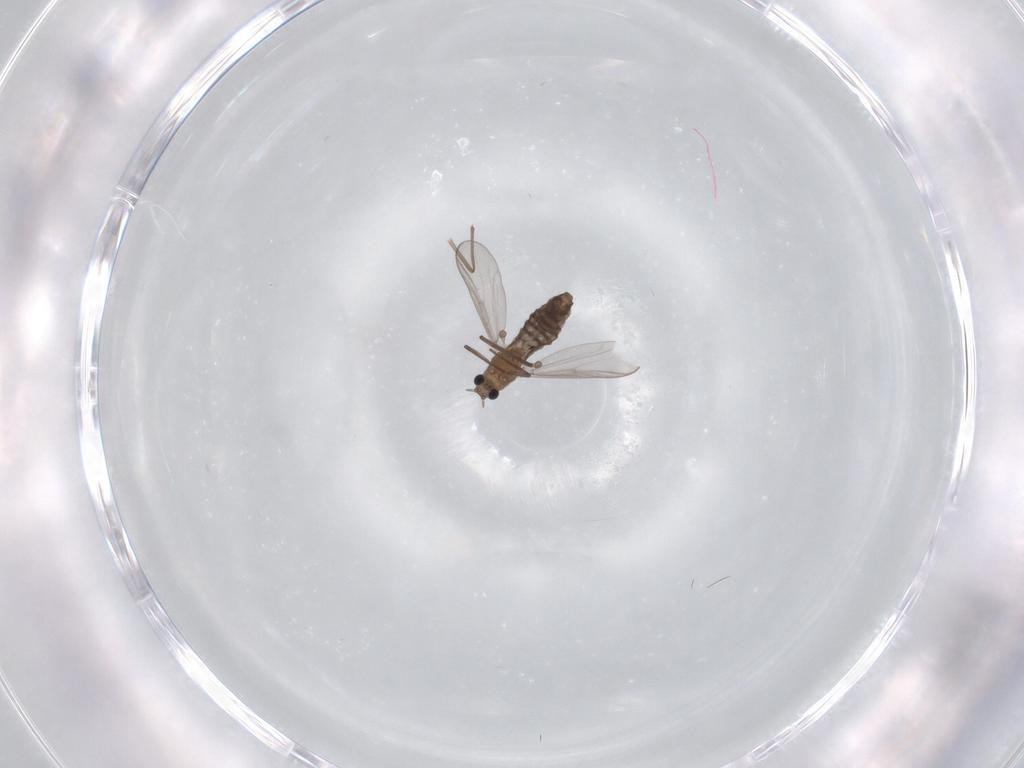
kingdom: Animalia
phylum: Arthropoda
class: Insecta
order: Diptera
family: Chironomidae
